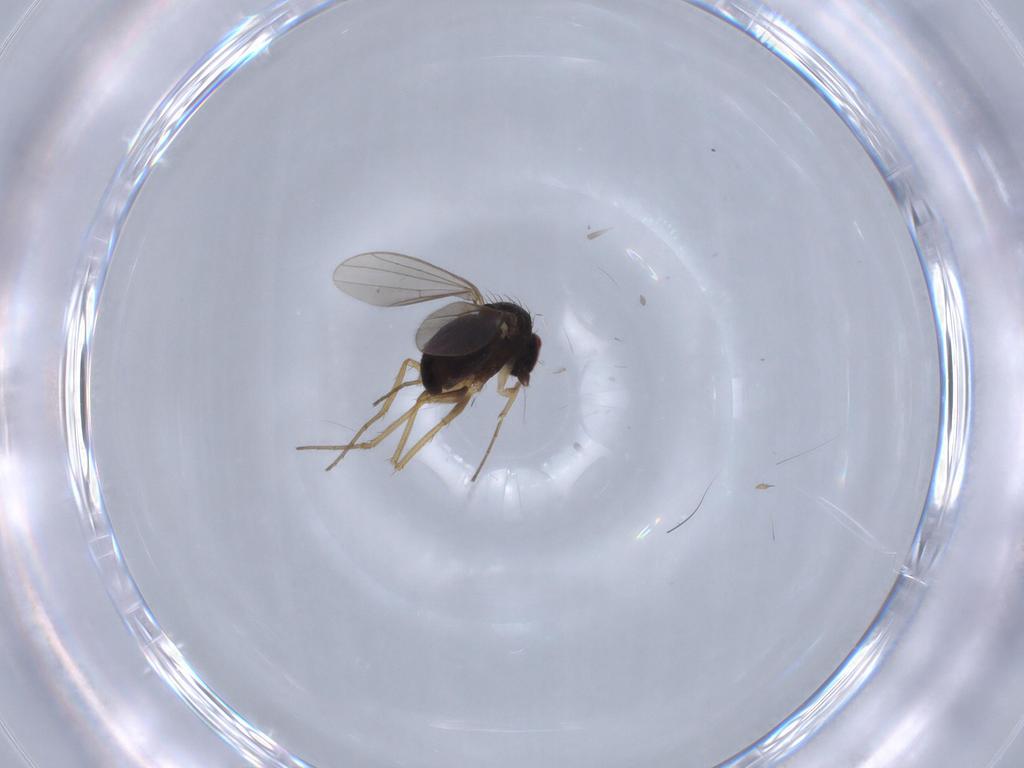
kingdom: Animalia
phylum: Arthropoda
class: Insecta
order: Diptera
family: Dolichopodidae
